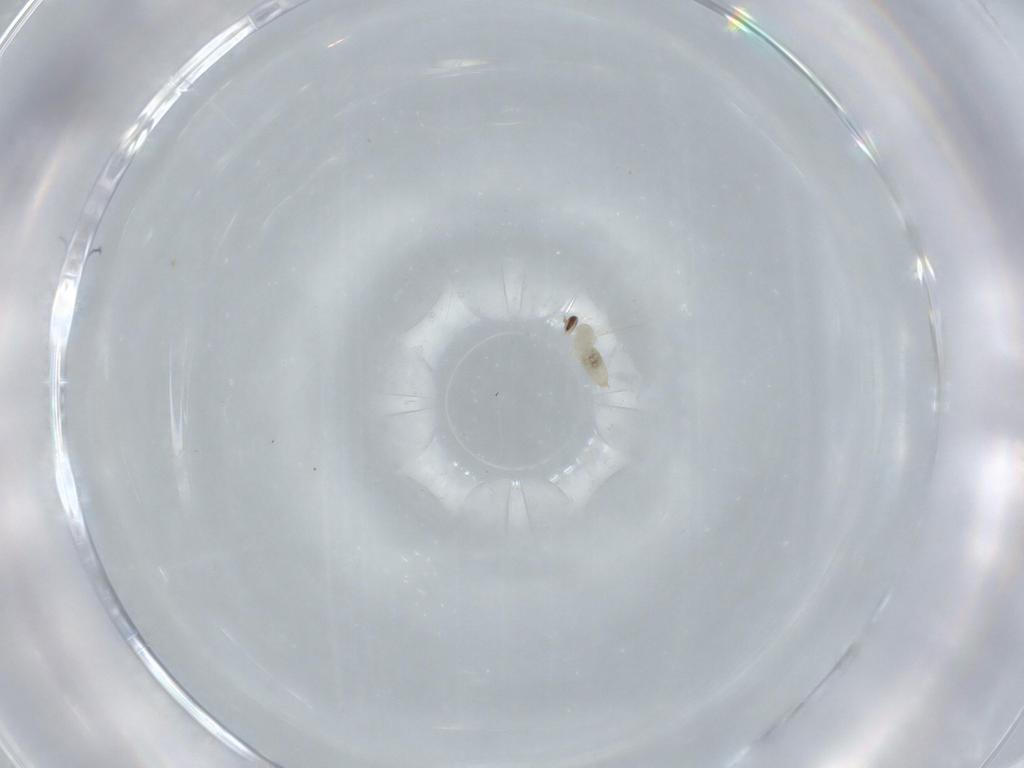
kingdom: Animalia
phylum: Arthropoda
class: Insecta
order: Diptera
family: Cecidomyiidae
